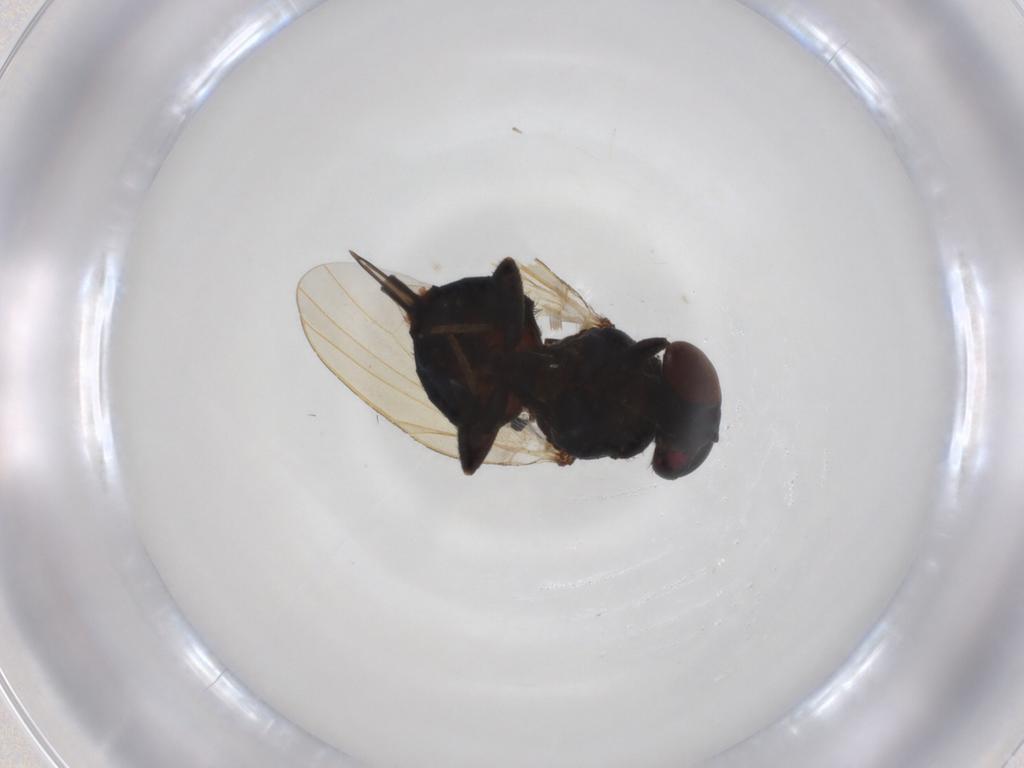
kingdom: Animalia
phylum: Arthropoda
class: Insecta
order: Diptera
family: Lonchaeidae
